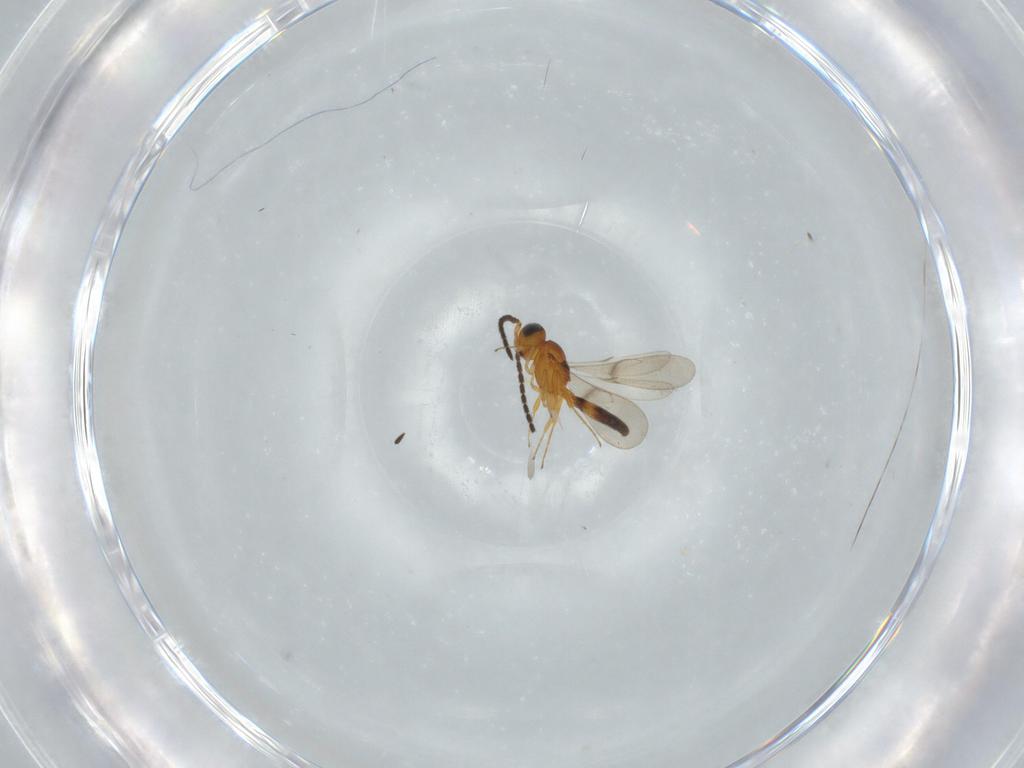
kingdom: Animalia
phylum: Arthropoda
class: Insecta
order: Hymenoptera
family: Scelionidae
